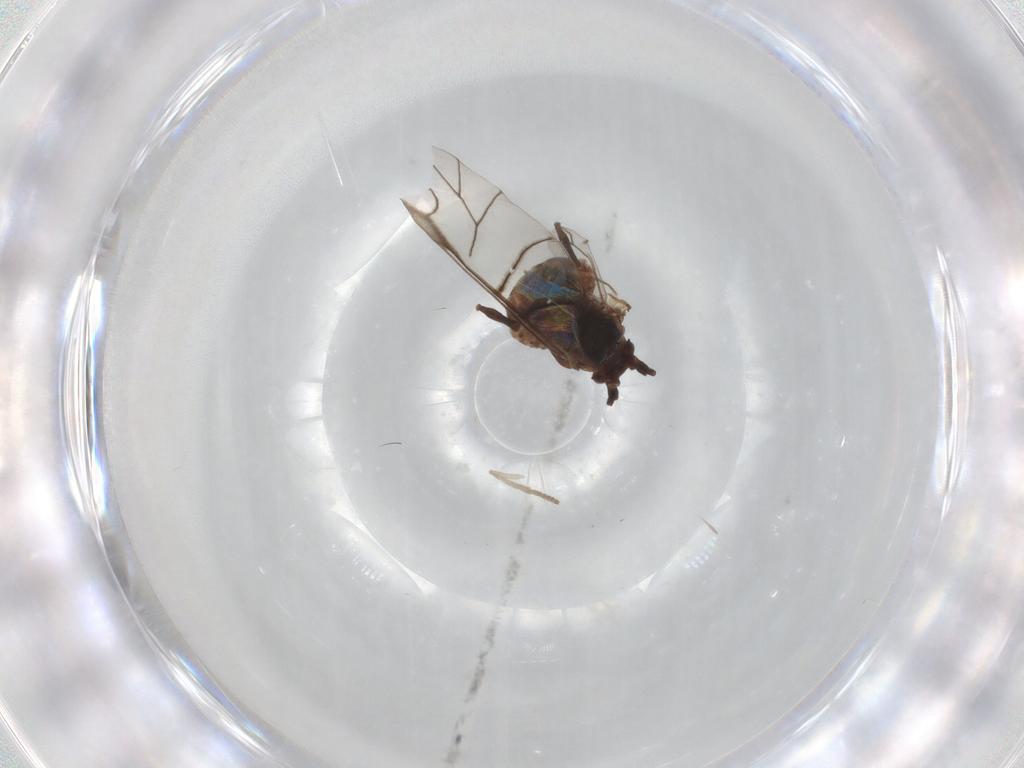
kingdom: Animalia
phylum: Arthropoda
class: Insecta
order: Hemiptera
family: Aphididae
